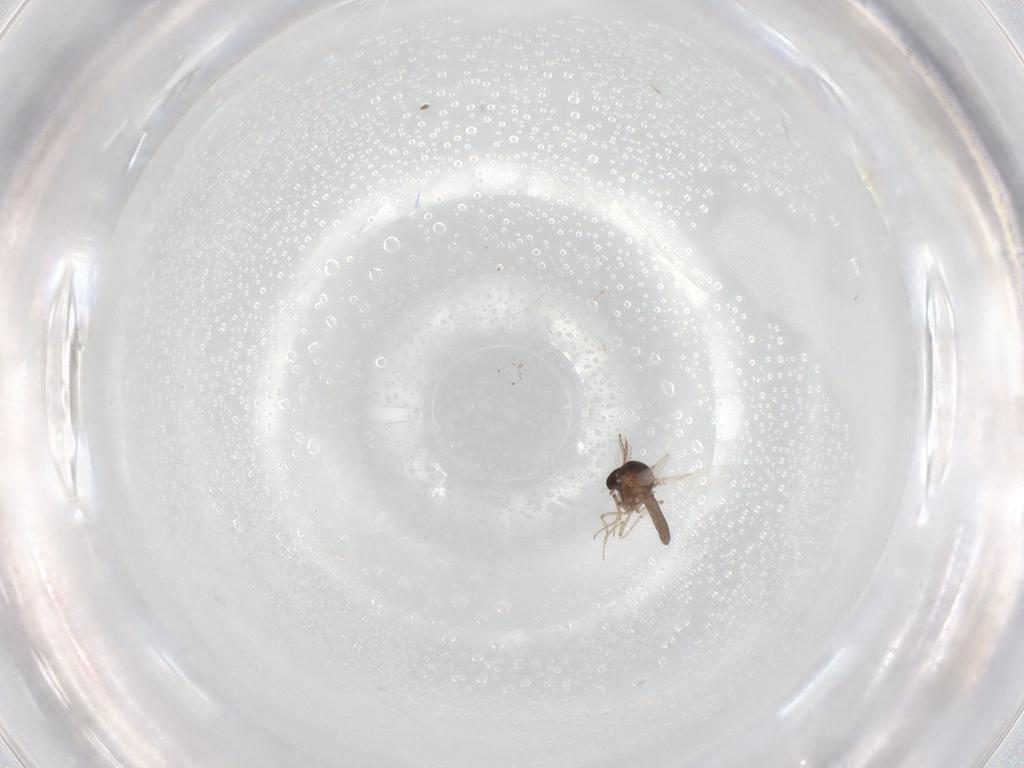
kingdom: Animalia
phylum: Arthropoda
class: Insecta
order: Diptera
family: Ceratopogonidae
